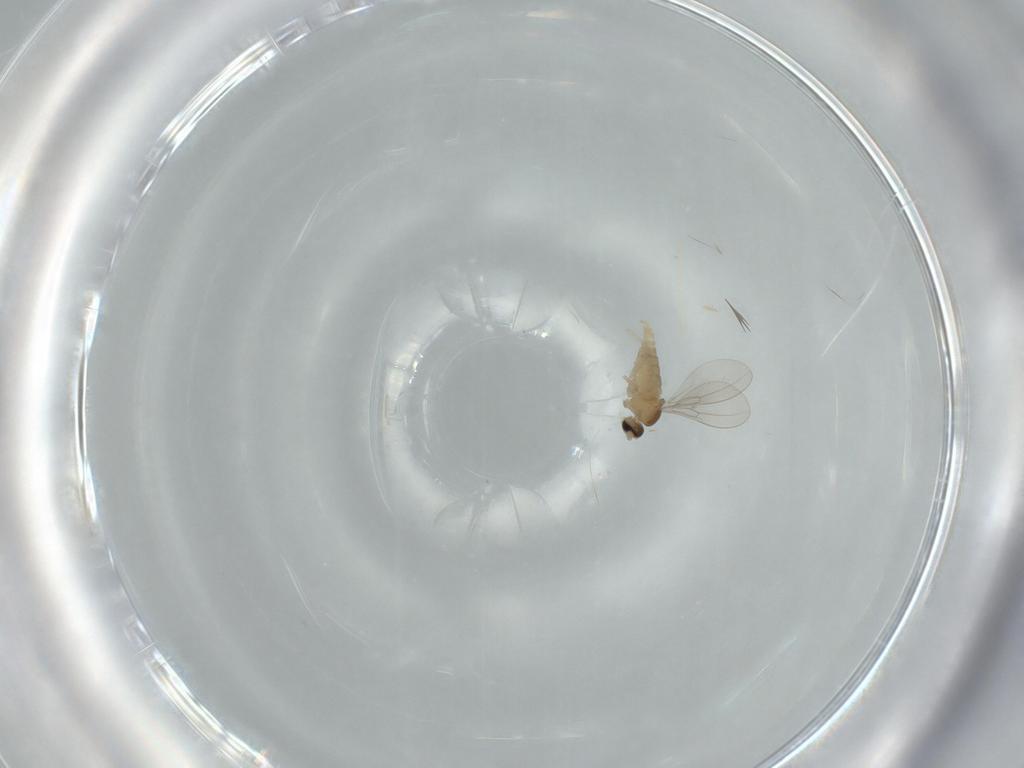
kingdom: Animalia
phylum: Arthropoda
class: Insecta
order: Diptera
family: Cecidomyiidae
